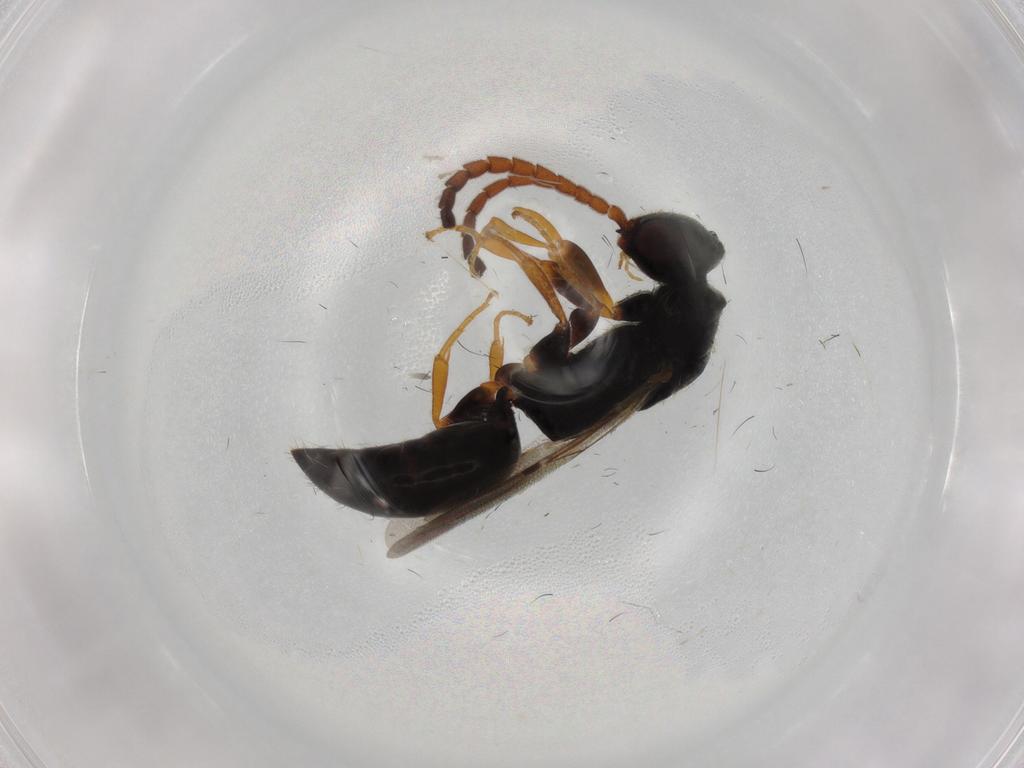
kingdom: Animalia
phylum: Arthropoda
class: Insecta
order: Hymenoptera
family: Bethylidae
